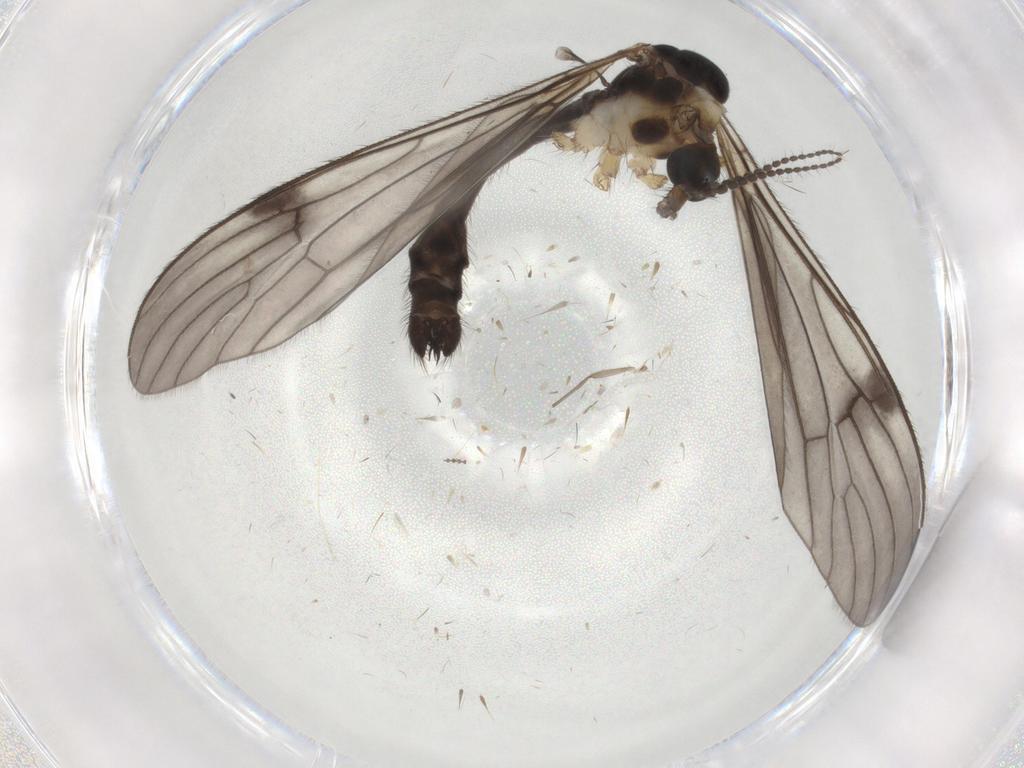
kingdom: Animalia
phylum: Arthropoda
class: Insecta
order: Diptera
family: Limoniidae
